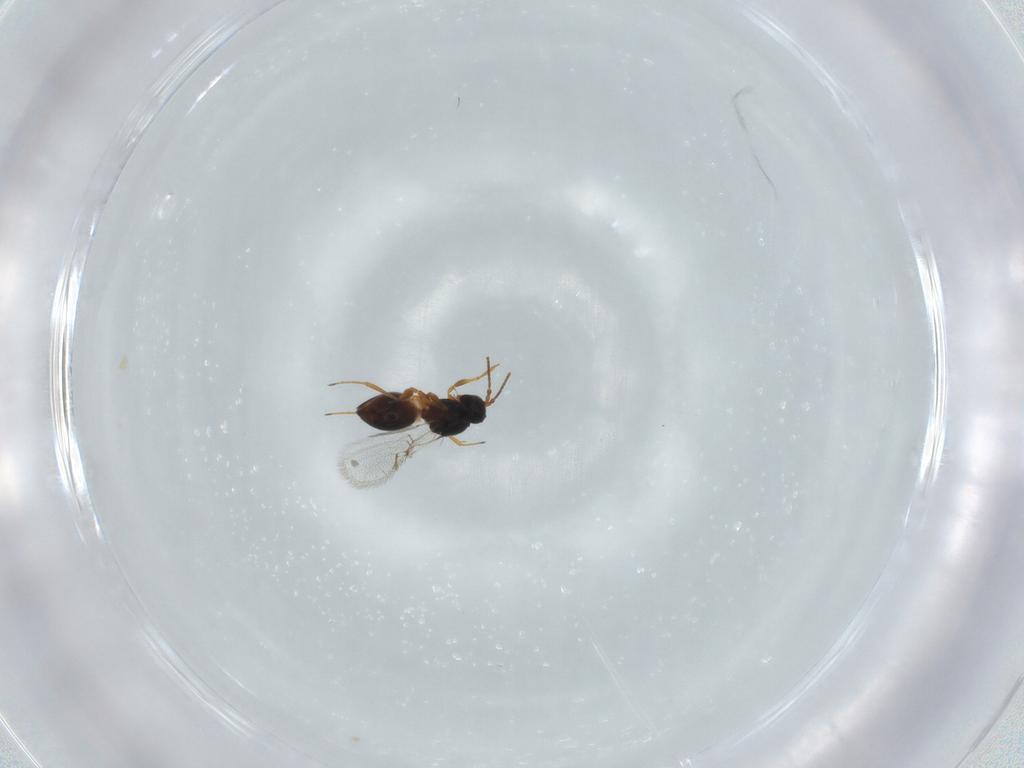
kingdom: Animalia
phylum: Arthropoda
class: Insecta
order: Hymenoptera
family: Figitidae
